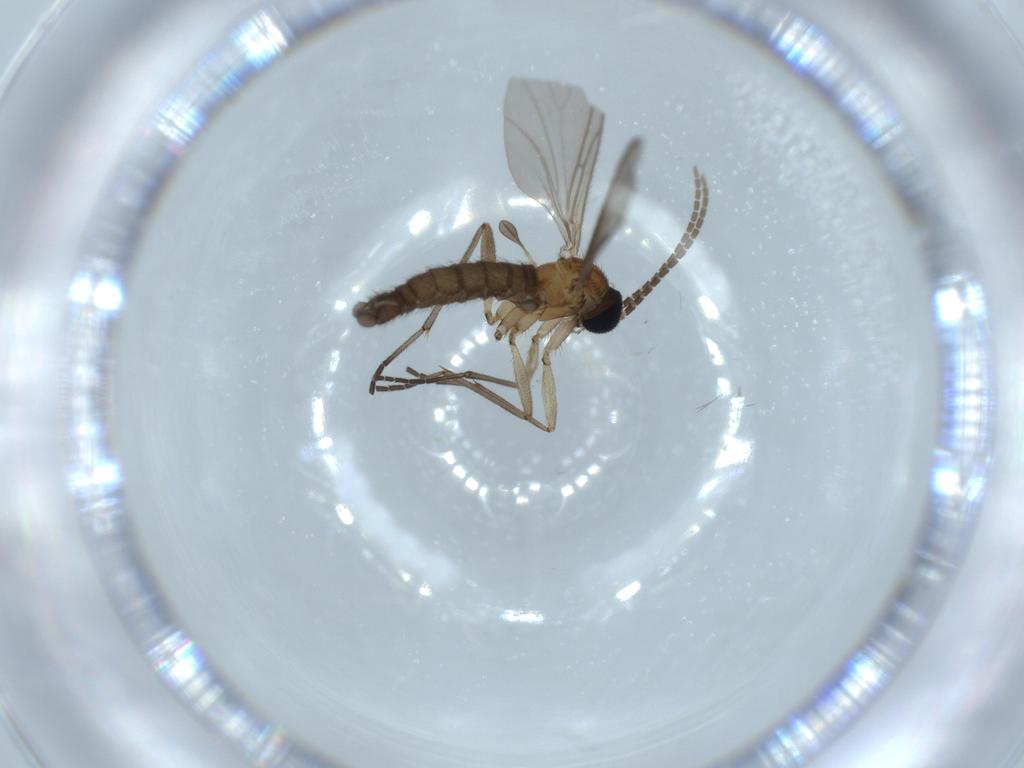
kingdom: Animalia
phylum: Arthropoda
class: Insecta
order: Diptera
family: Sciaridae
